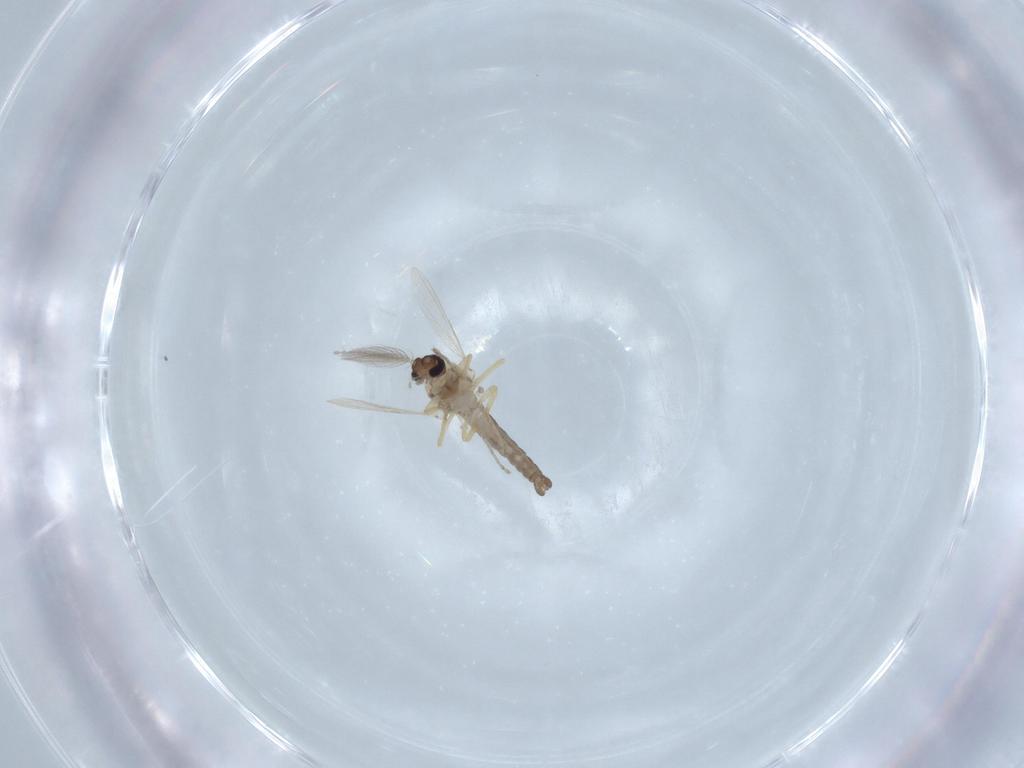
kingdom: Animalia
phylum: Arthropoda
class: Insecta
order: Diptera
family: Ceratopogonidae
